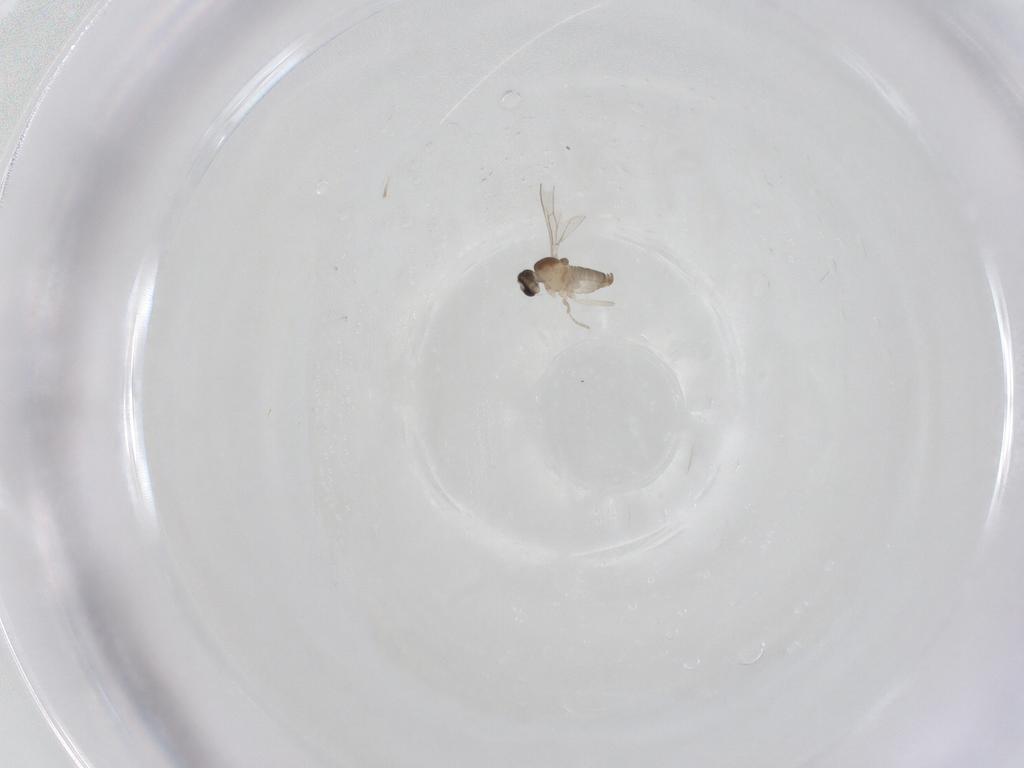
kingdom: Animalia
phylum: Arthropoda
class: Insecta
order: Diptera
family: Cecidomyiidae
